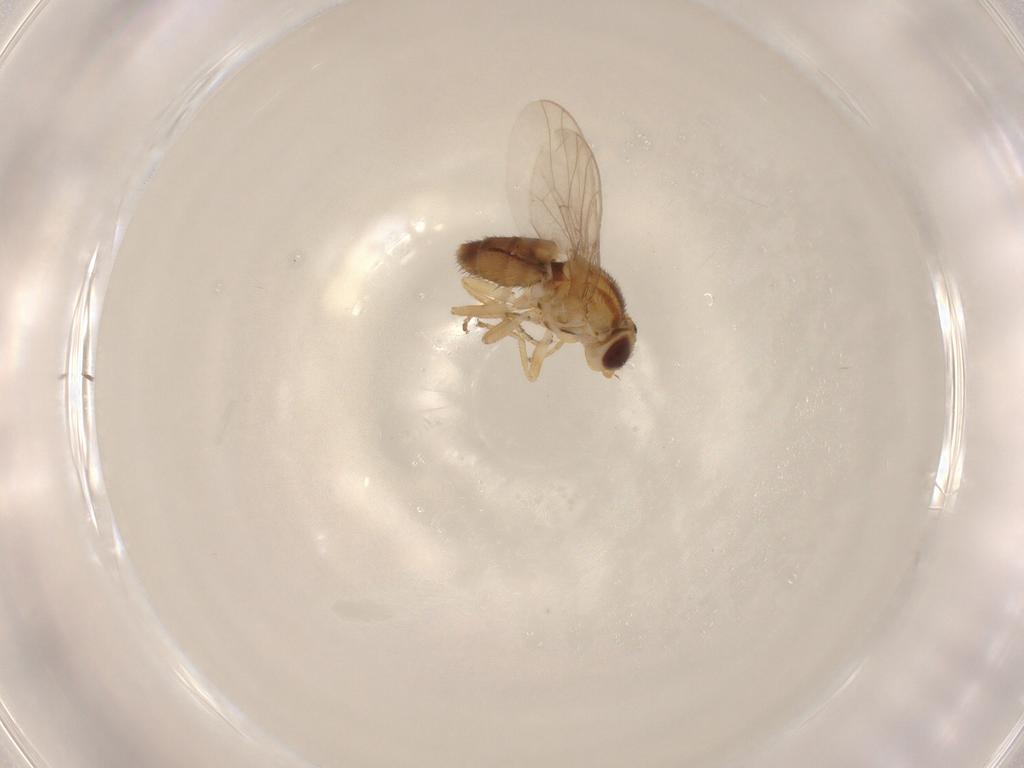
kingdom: Animalia
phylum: Arthropoda
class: Insecta
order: Diptera
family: Chloropidae
